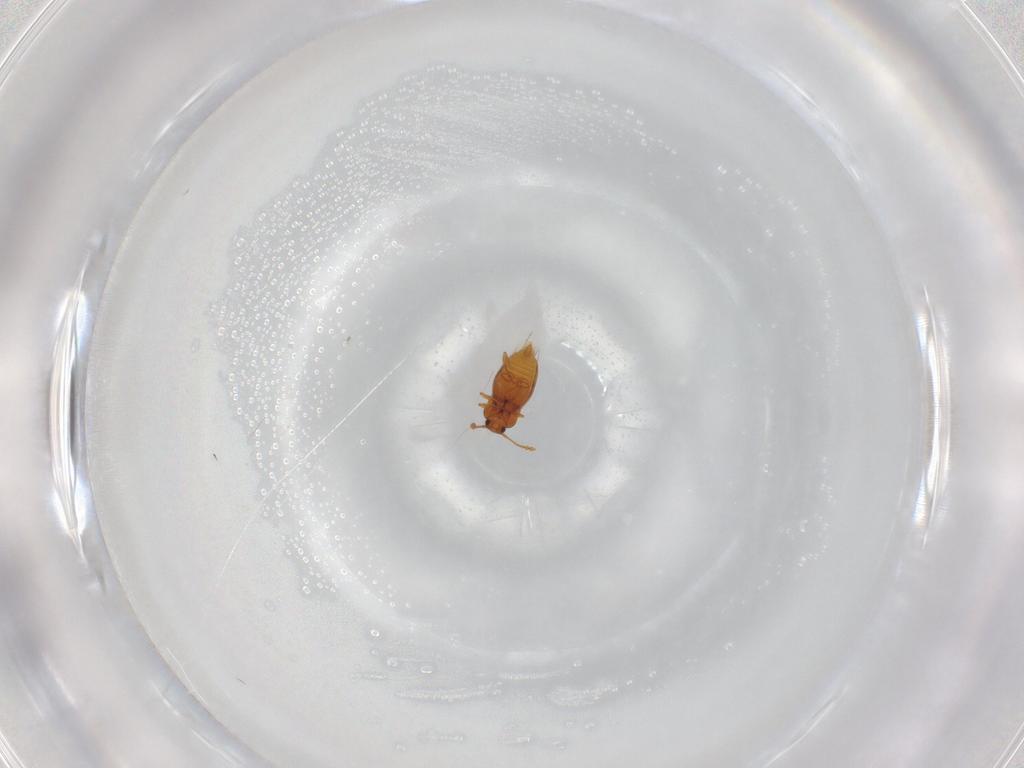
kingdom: Animalia
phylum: Arthropoda
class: Insecta
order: Coleoptera
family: Staphylinidae
